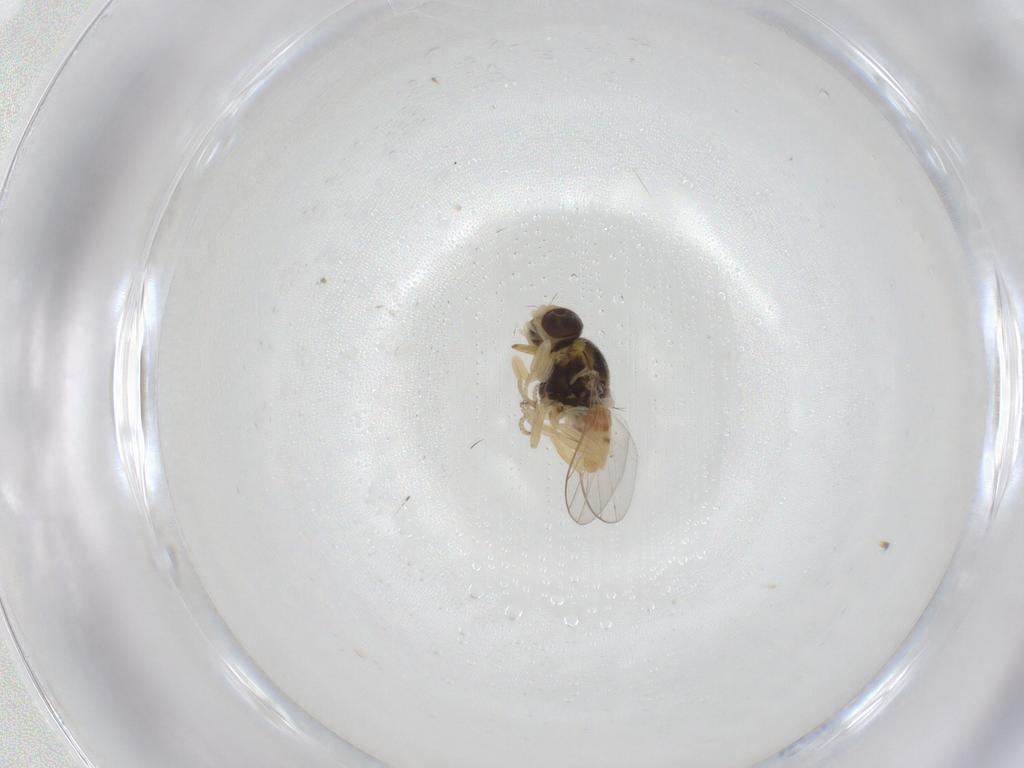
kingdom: Animalia
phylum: Arthropoda
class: Insecta
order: Diptera
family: Chloropidae
